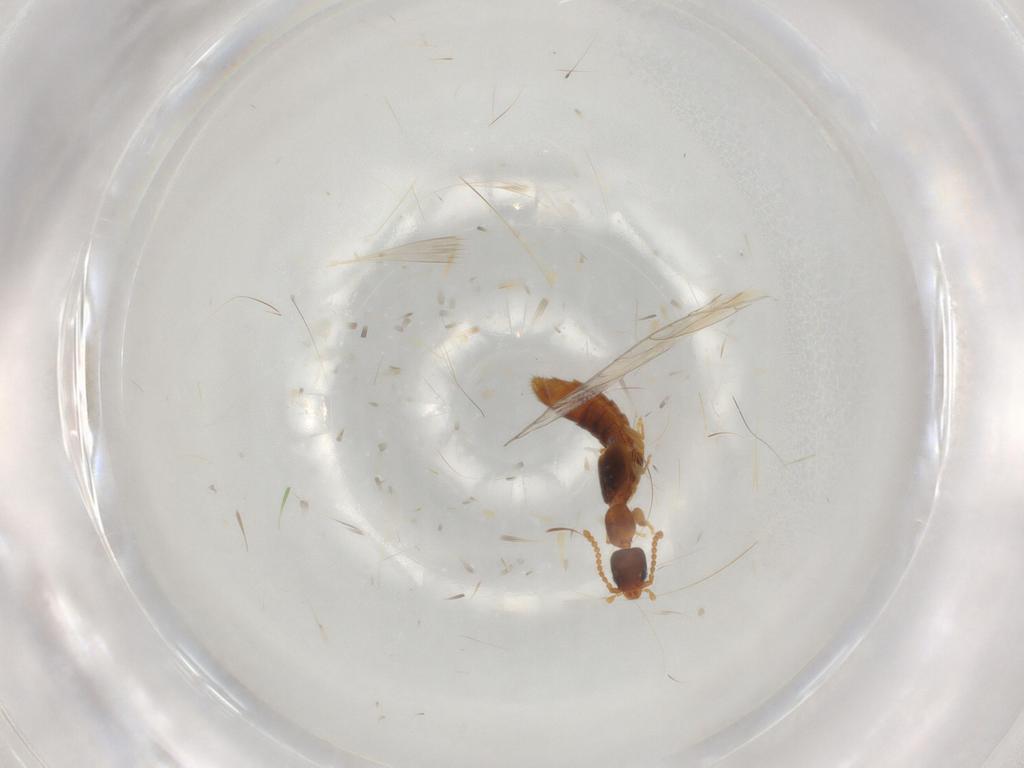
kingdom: Animalia
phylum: Arthropoda
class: Insecta
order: Coleoptera
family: Staphylinidae
